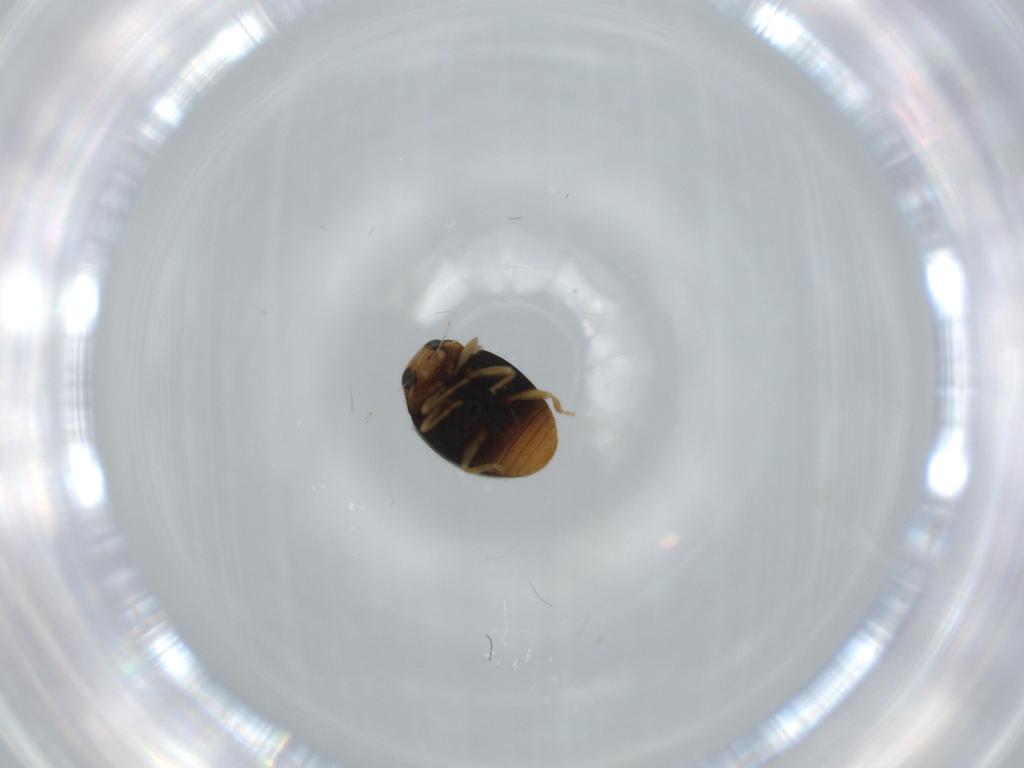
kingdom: Animalia
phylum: Arthropoda
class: Insecta
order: Coleoptera
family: Coccinellidae
